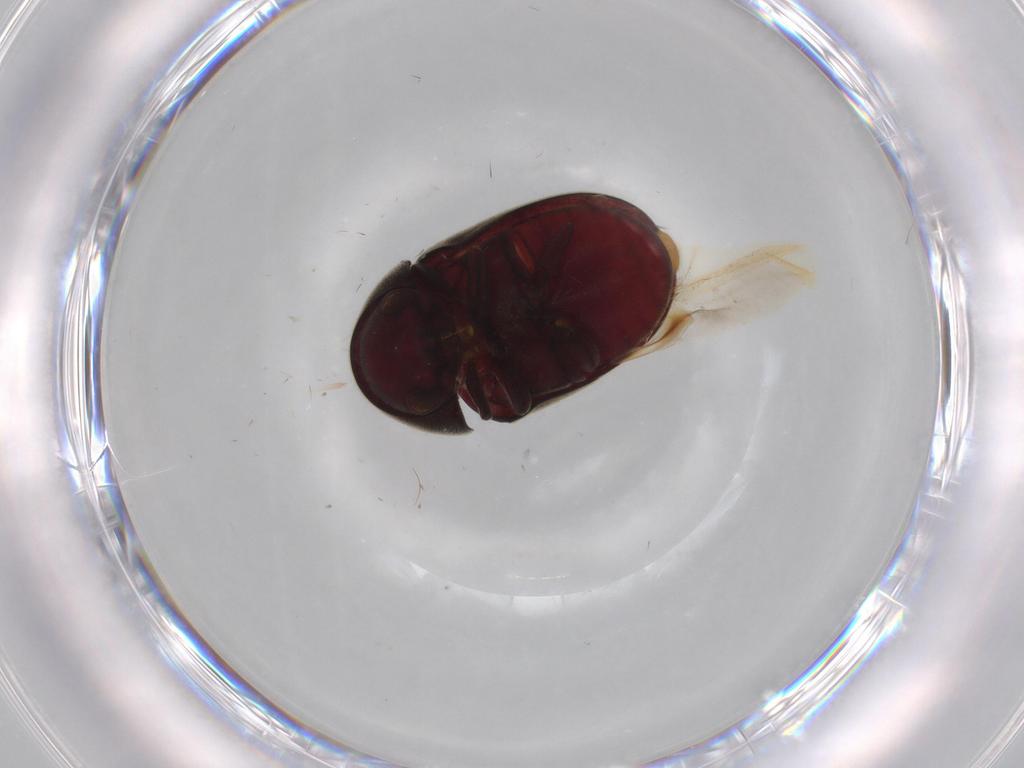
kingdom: Animalia
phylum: Arthropoda
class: Insecta
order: Coleoptera
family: Ptinidae
